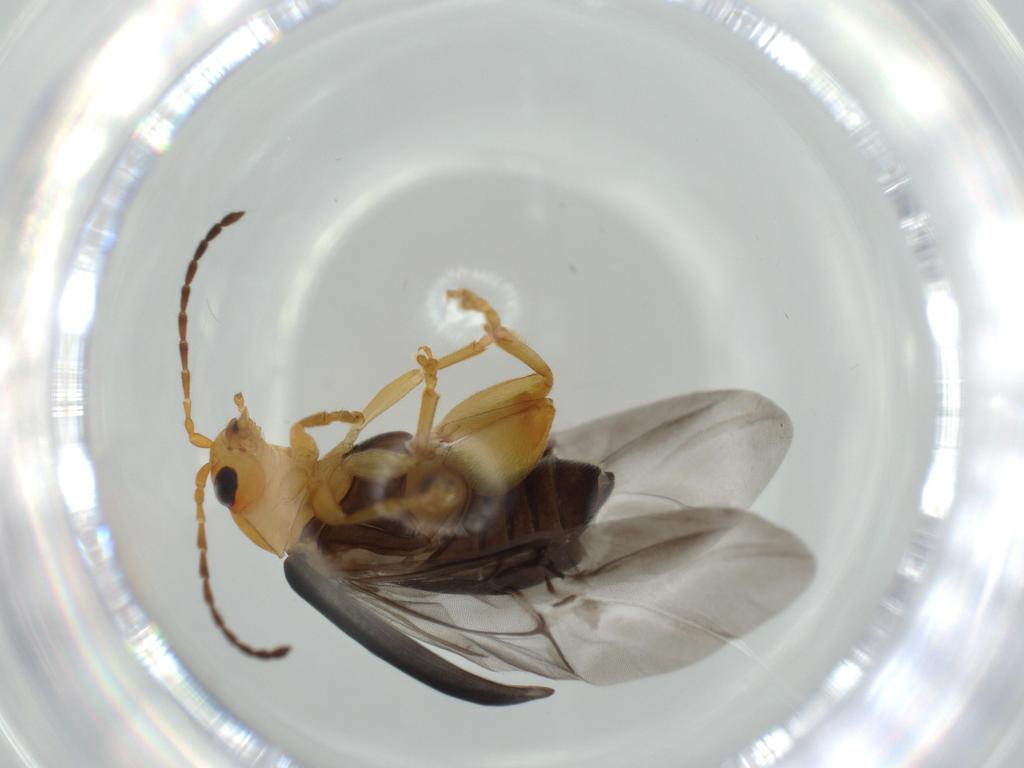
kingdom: Animalia
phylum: Arthropoda
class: Insecta
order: Coleoptera
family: Chrysomelidae
